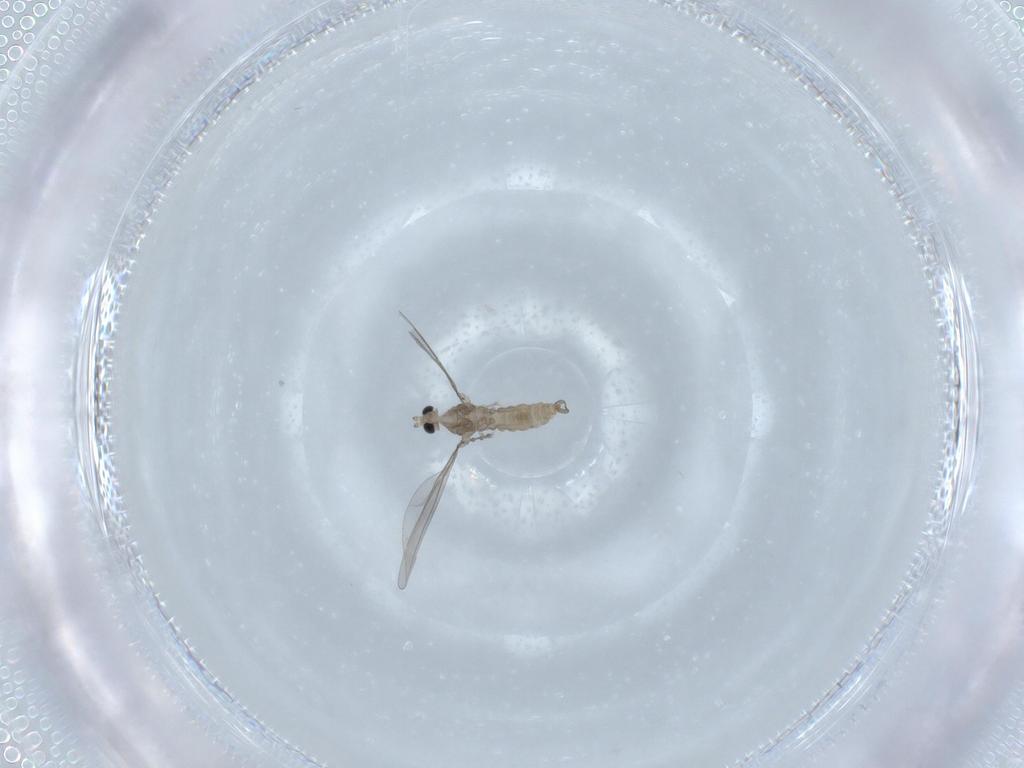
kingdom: Animalia
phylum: Arthropoda
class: Insecta
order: Diptera
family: Cecidomyiidae
